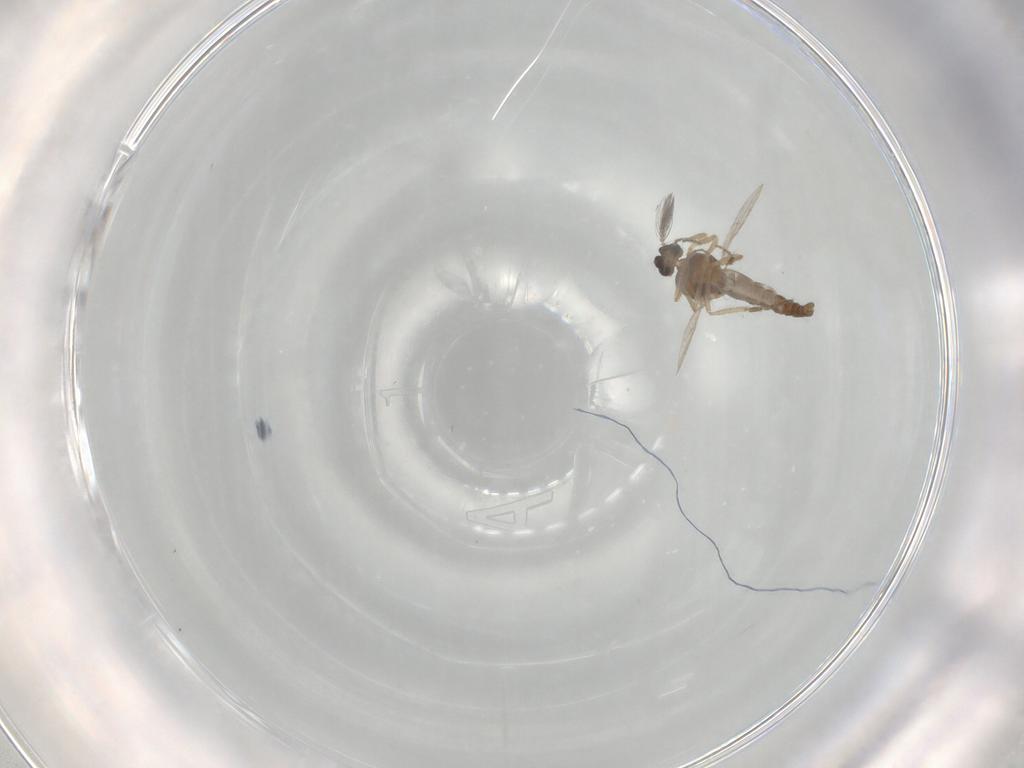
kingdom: Animalia
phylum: Arthropoda
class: Insecta
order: Diptera
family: Ceratopogonidae
